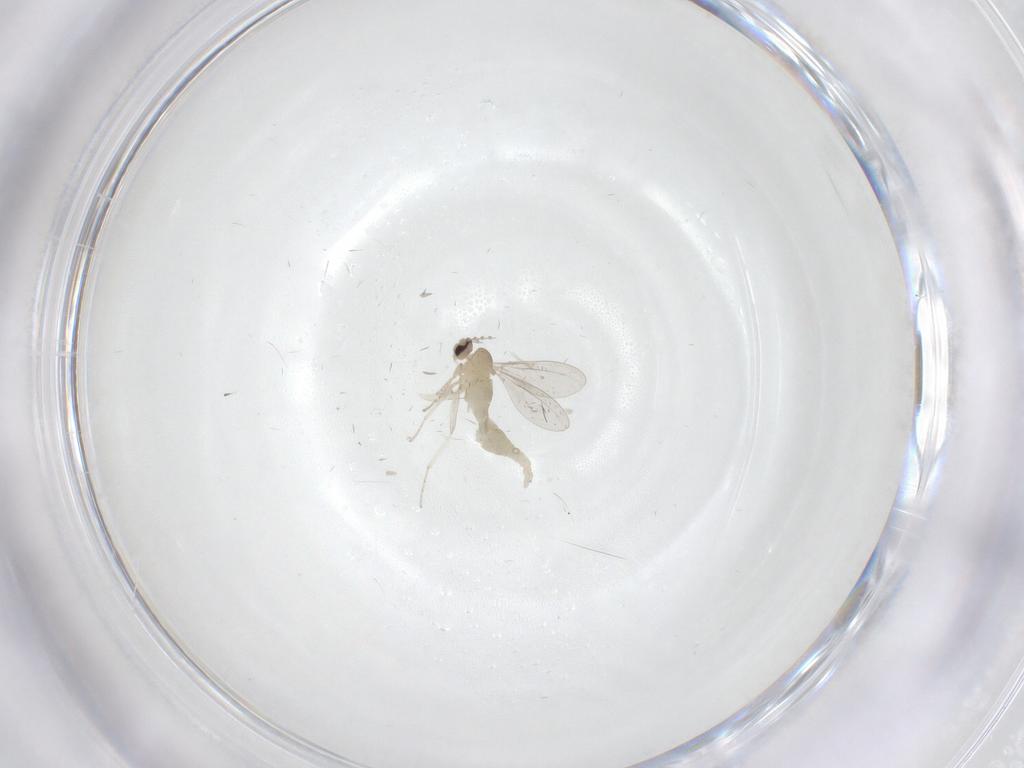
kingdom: Animalia
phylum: Arthropoda
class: Insecta
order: Diptera
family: Cecidomyiidae
